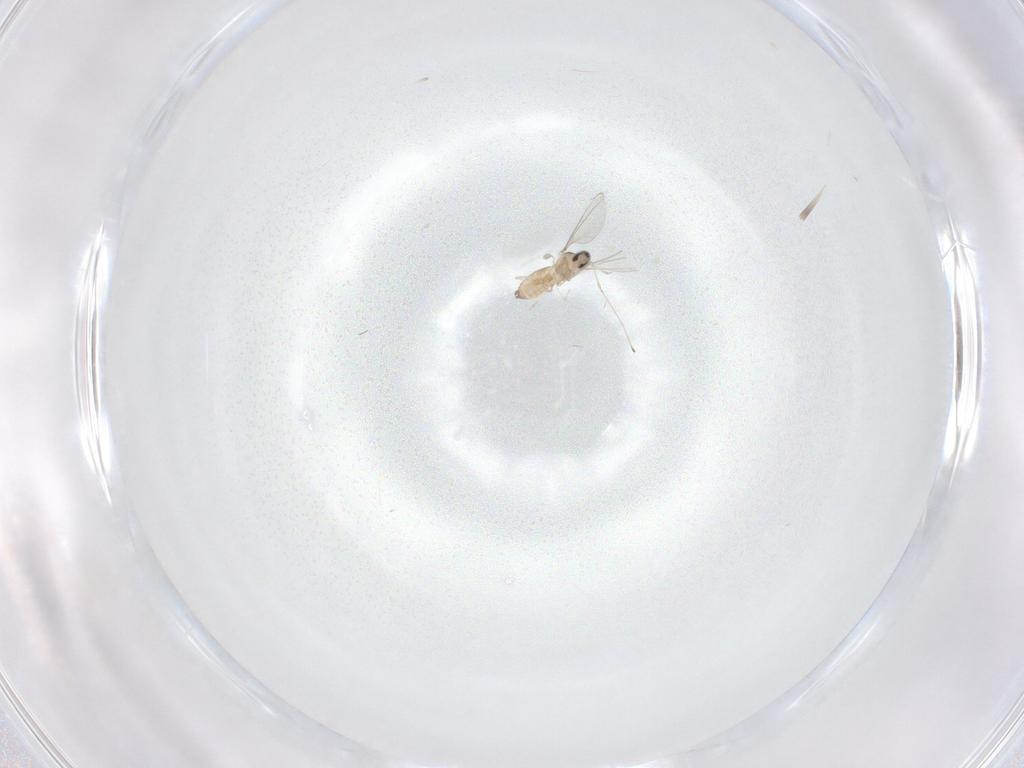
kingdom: Animalia
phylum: Arthropoda
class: Insecta
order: Diptera
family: Cecidomyiidae
